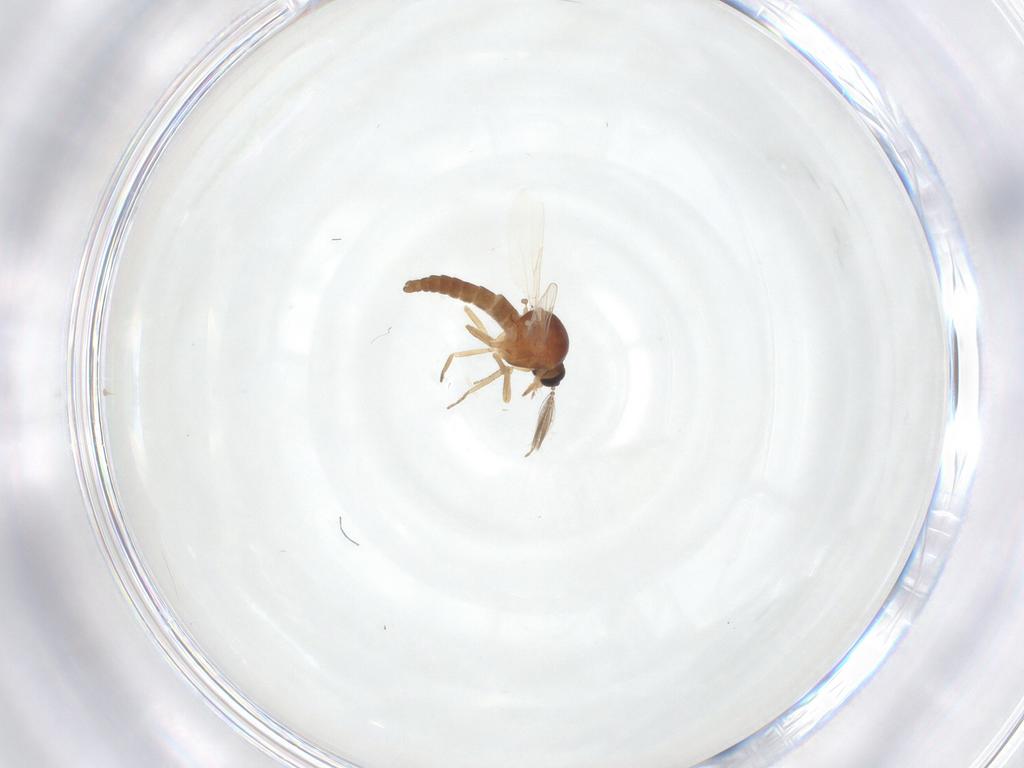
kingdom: Animalia
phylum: Arthropoda
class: Insecta
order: Diptera
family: Ceratopogonidae
